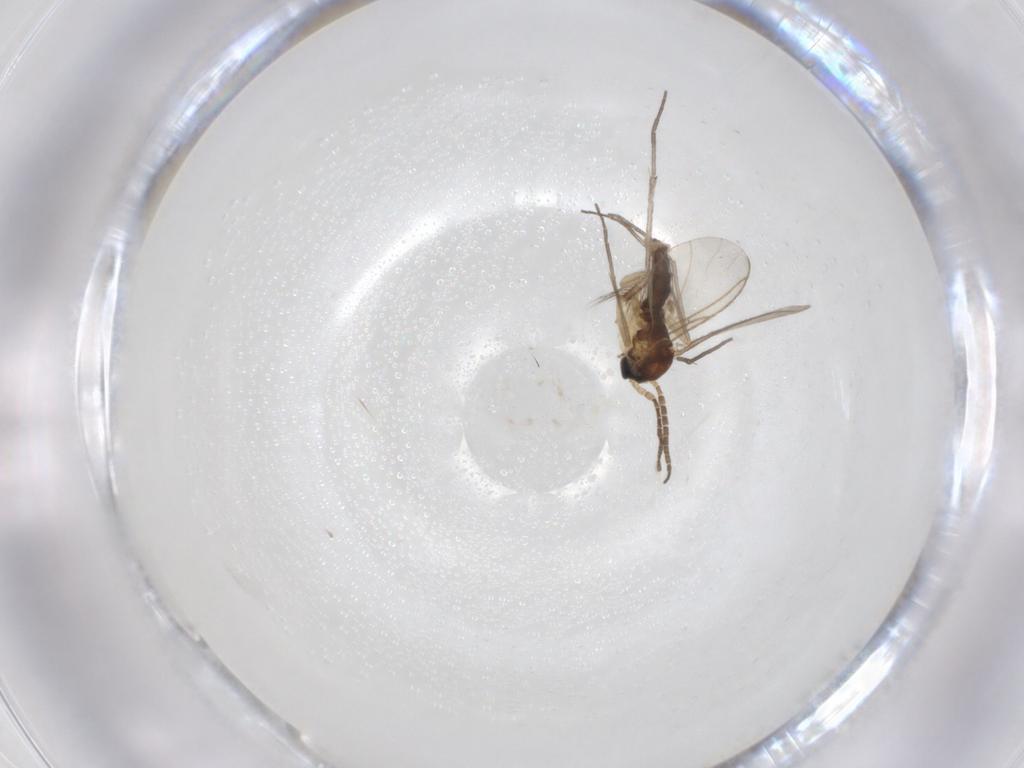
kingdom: Animalia
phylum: Arthropoda
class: Insecta
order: Diptera
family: Sciaridae
